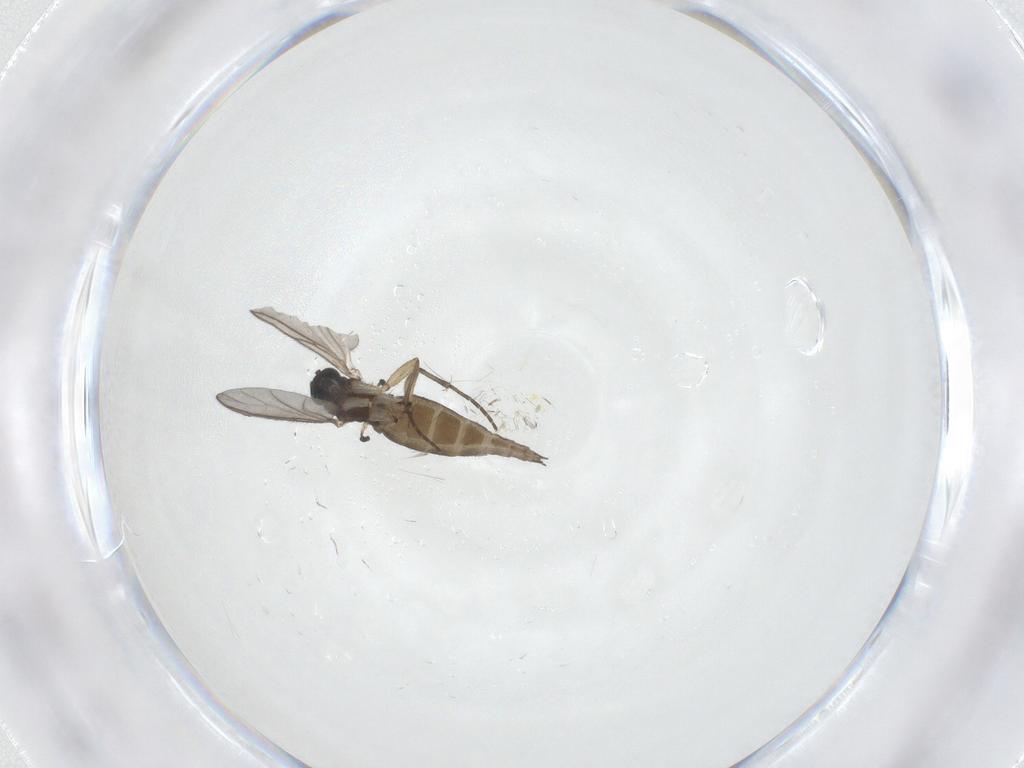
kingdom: Animalia
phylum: Arthropoda
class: Insecta
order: Diptera
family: Sciaridae
